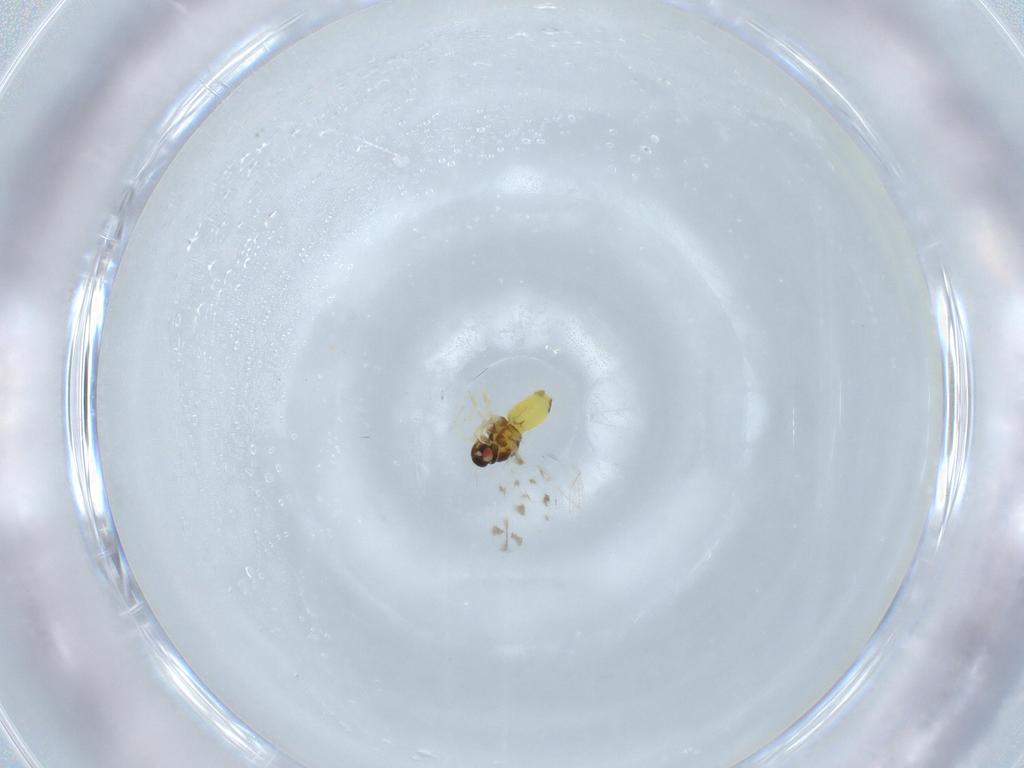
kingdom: Animalia
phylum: Arthropoda
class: Insecta
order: Hemiptera
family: Aleyrodidae
